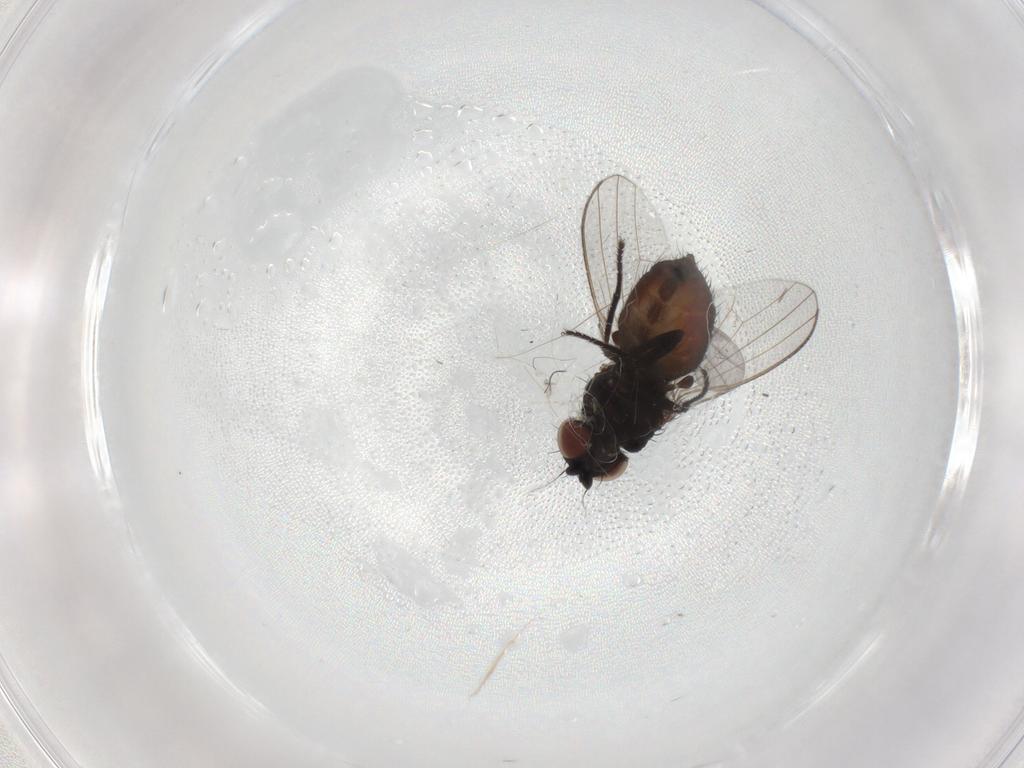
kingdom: Animalia
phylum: Arthropoda
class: Insecta
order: Diptera
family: Milichiidae
